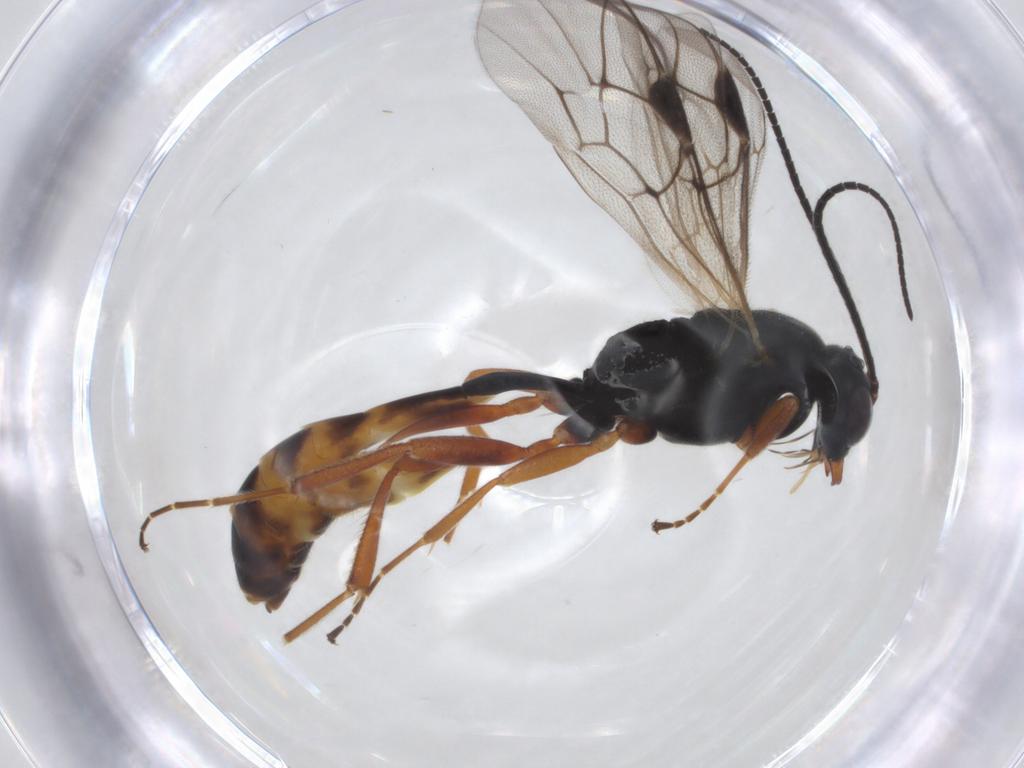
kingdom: Animalia
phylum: Arthropoda
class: Insecta
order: Hymenoptera
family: Ichneumonidae
